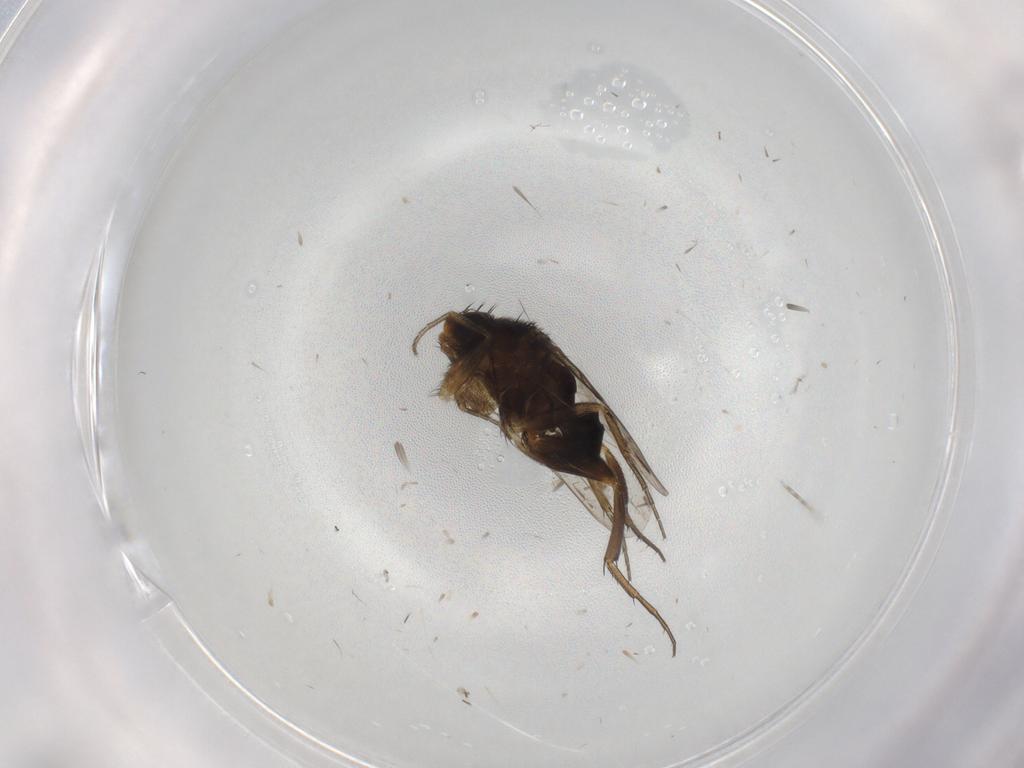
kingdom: Animalia
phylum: Arthropoda
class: Insecta
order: Diptera
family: Phoridae
